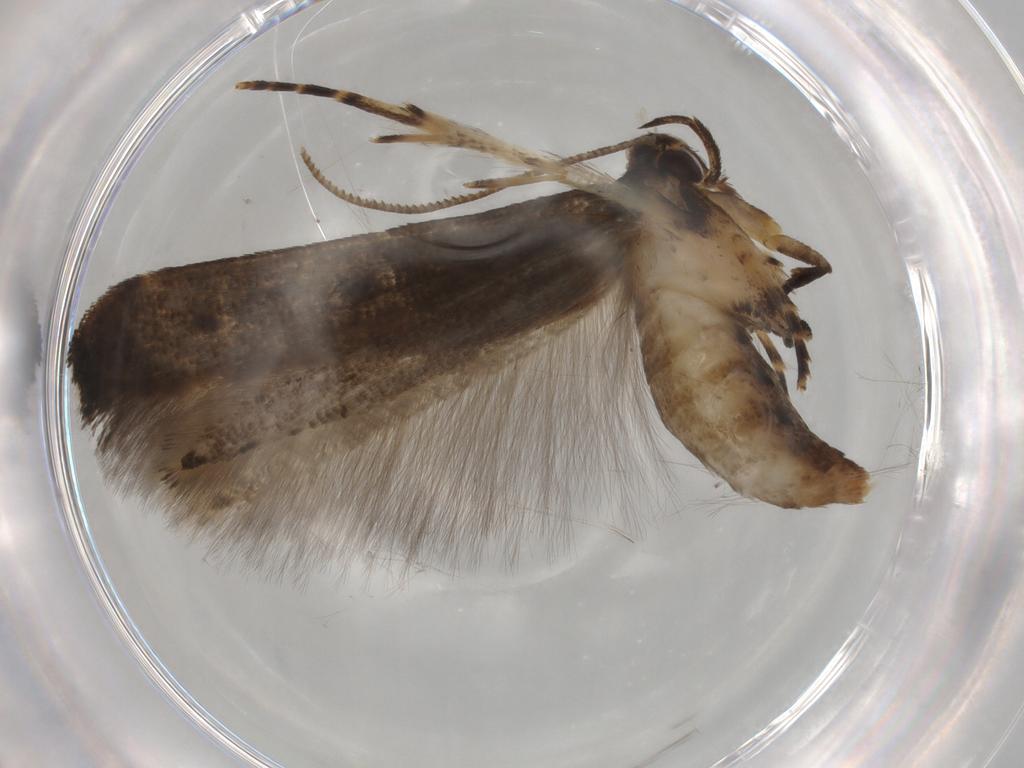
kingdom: Animalia
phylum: Arthropoda
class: Insecta
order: Lepidoptera
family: Cosmopterigidae
